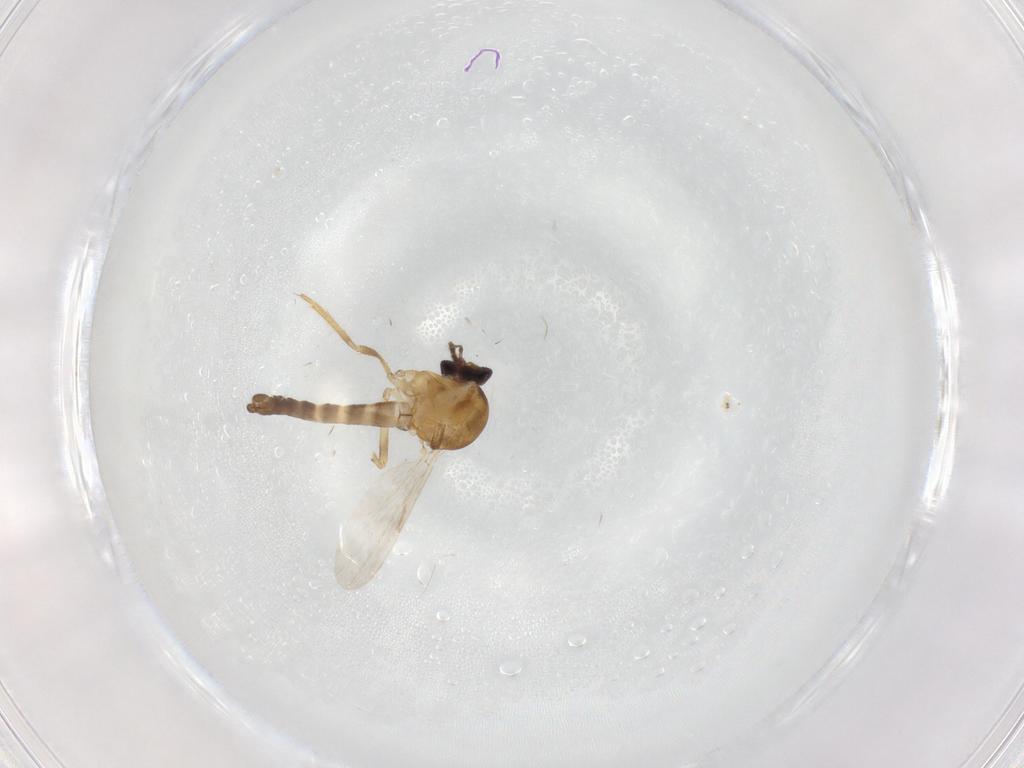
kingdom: Animalia
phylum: Arthropoda
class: Insecta
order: Diptera
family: Ceratopogonidae
